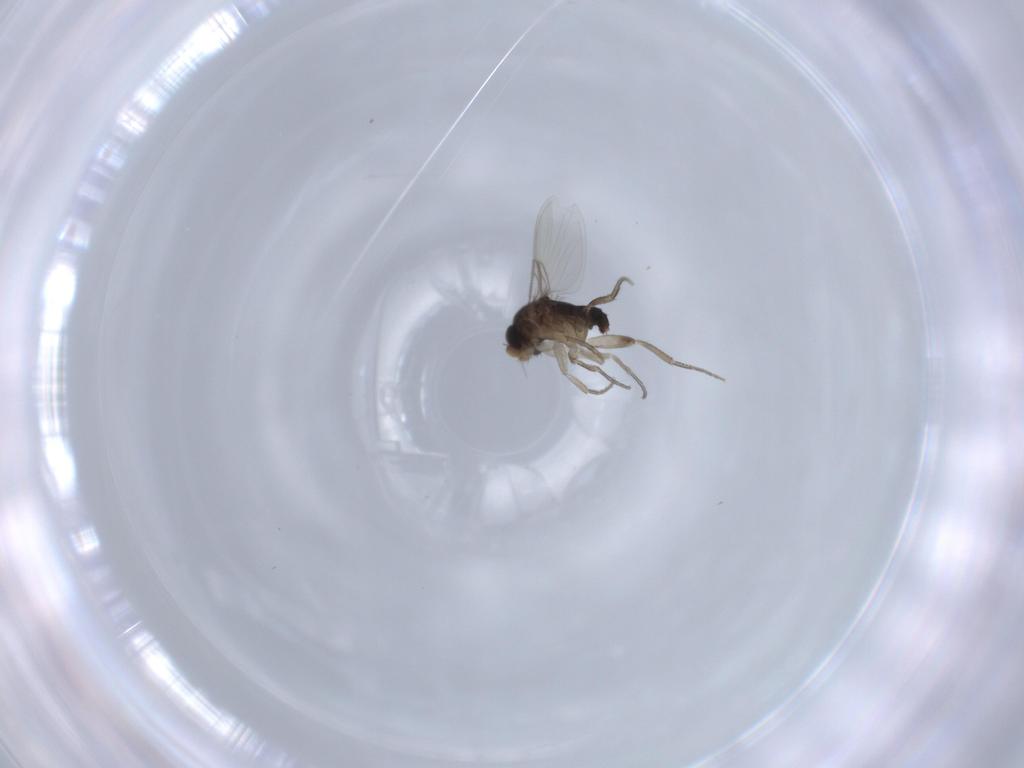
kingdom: Animalia
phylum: Arthropoda
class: Insecta
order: Diptera
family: Phoridae
